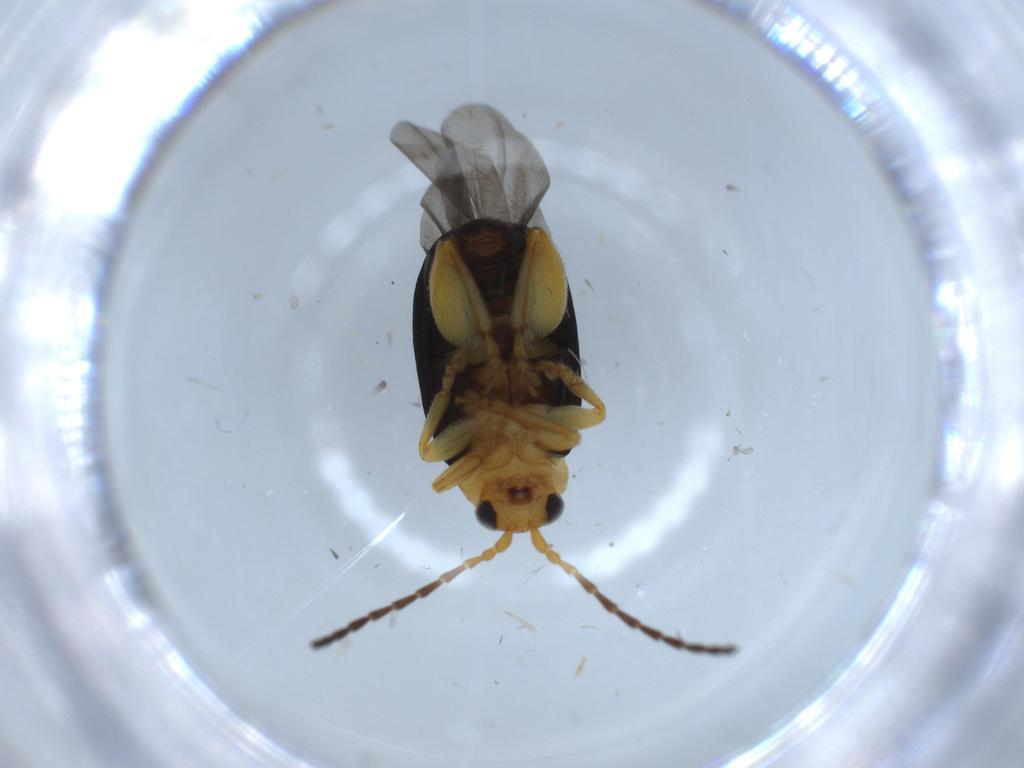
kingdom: Animalia
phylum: Arthropoda
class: Insecta
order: Coleoptera
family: Chrysomelidae
